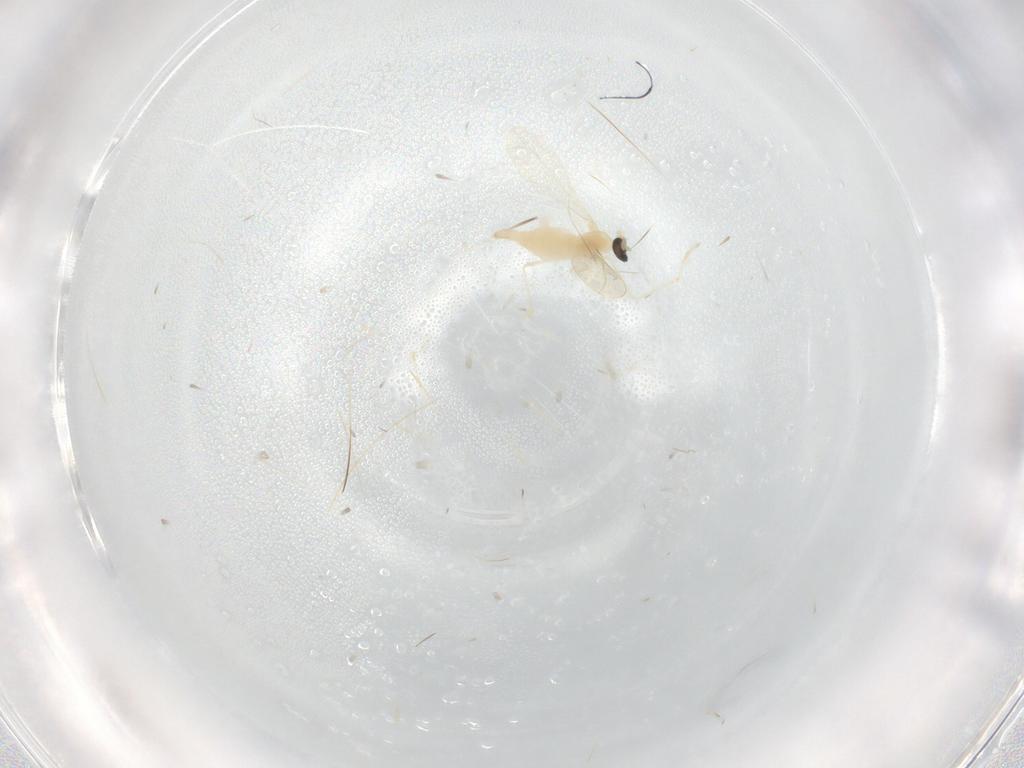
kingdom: Animalia
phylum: Arthropoda
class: Insecta
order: Diptera
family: Cecidomyiidae
